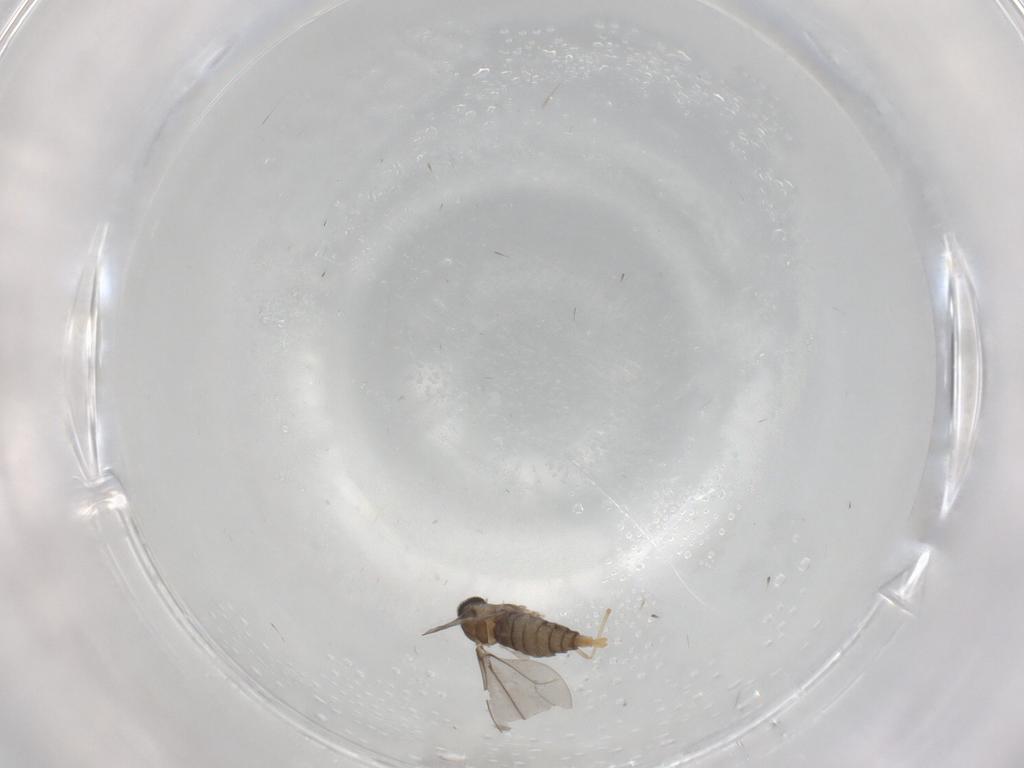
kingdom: Animalia
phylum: Arthropoda
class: Insecta
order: Diptera
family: Cecidomyiidae
